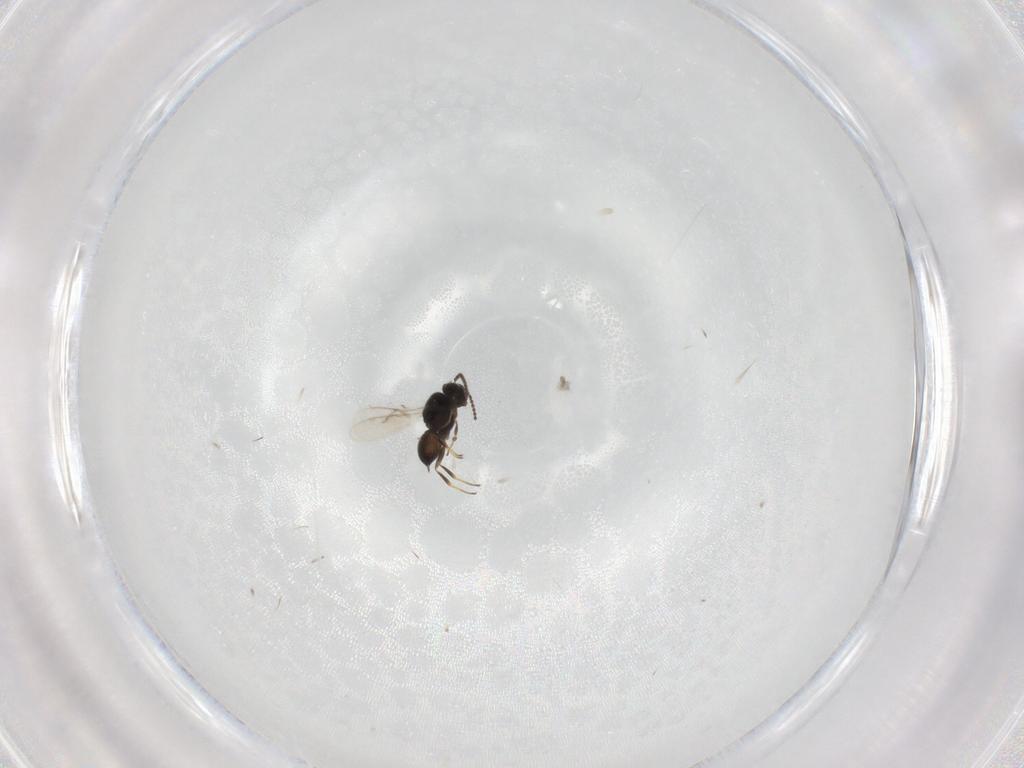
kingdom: Animalia
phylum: Arthropoda
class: Insecta
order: Hymenoptera
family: Scelionidae
